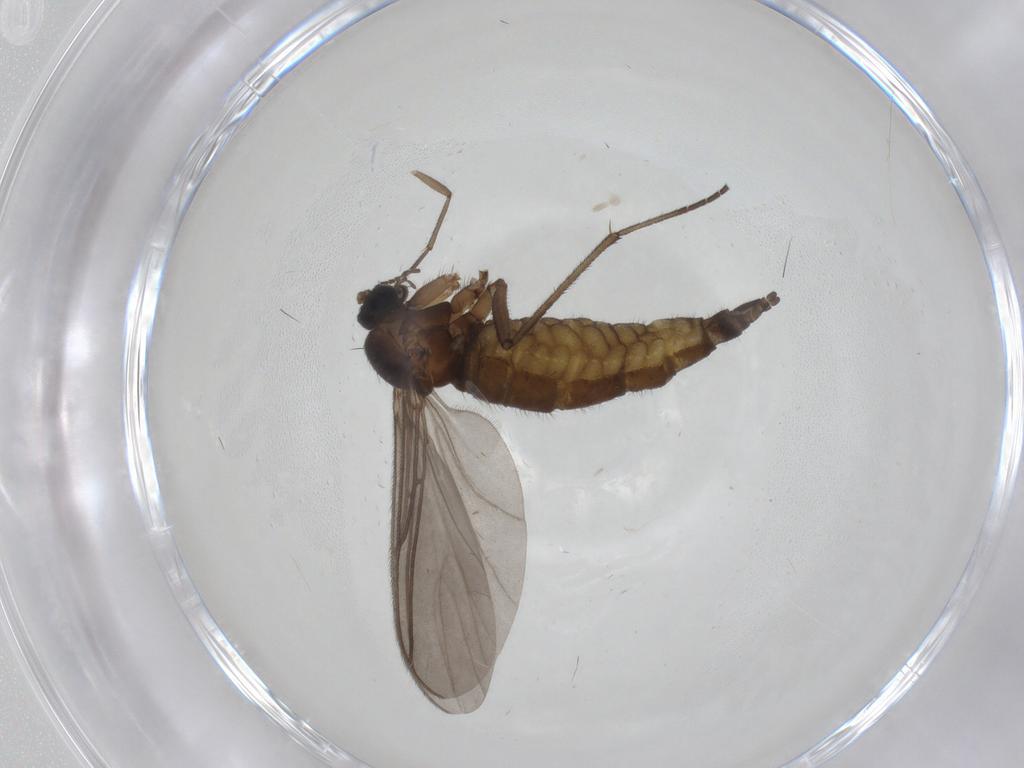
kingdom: Animalia
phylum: Arthropoda
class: Insecta
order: Diptera
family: Sciaridae
